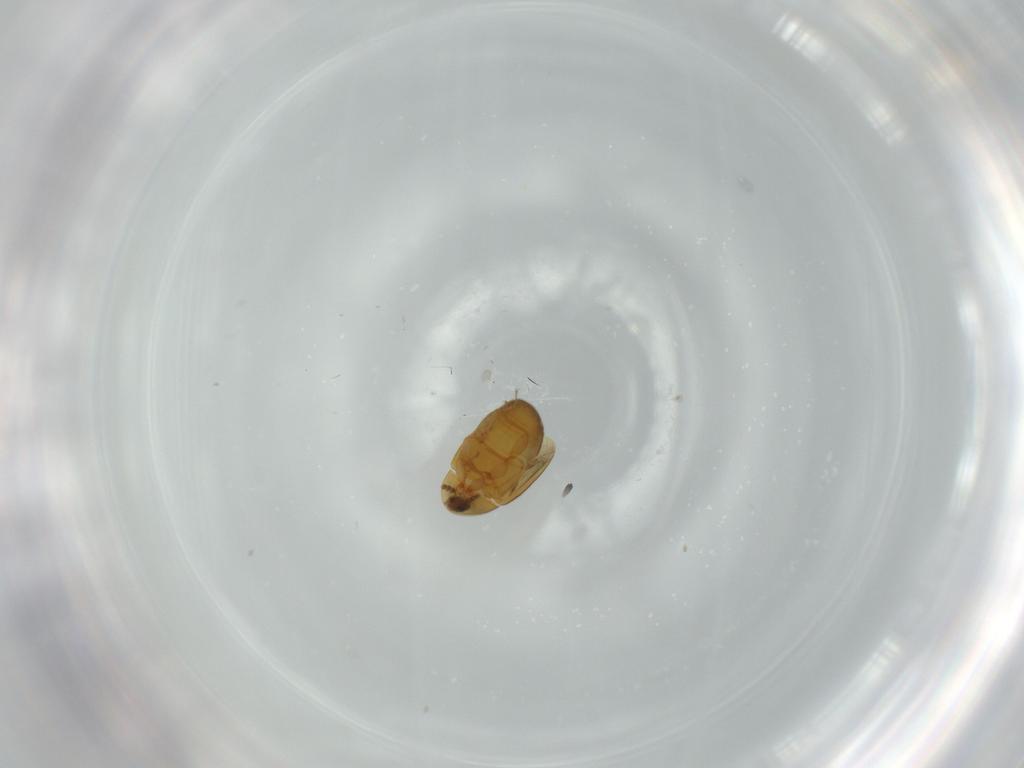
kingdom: Animalia
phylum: Arthropoda
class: Insecta
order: Coleoptera
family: Corylophidae
